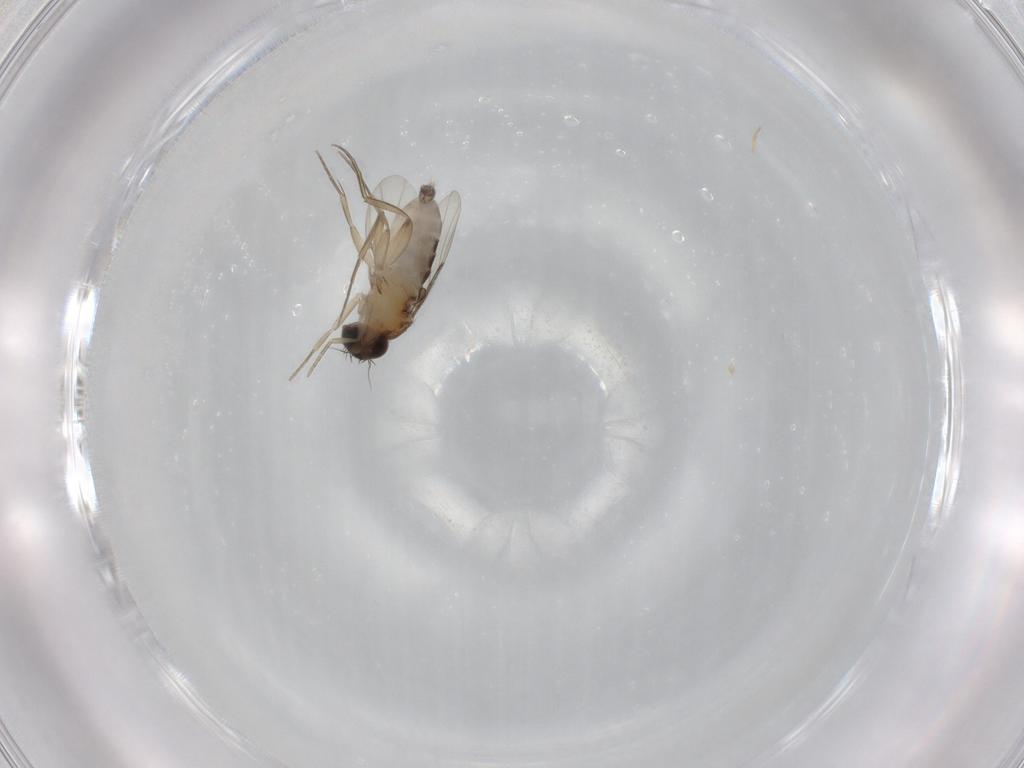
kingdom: Animalia
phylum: Arthropoda
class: Insecta
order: Diptera
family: Phoridae
